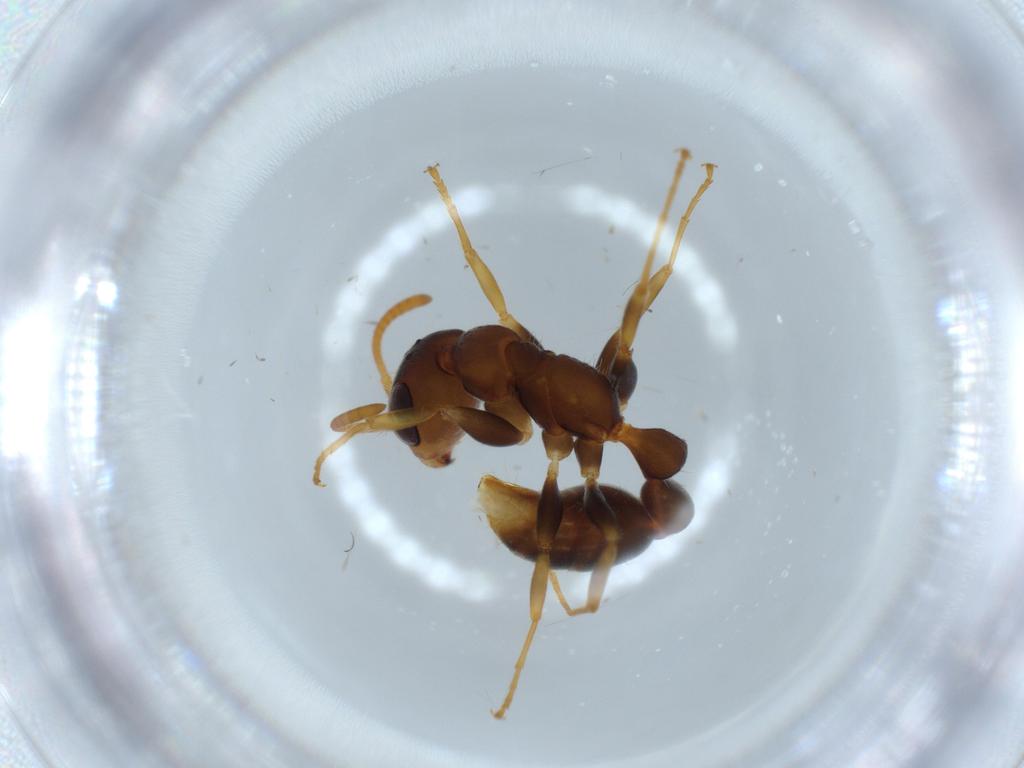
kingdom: Animalia
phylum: Arthropoda
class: Insecta
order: Hymenoptera
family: Formicidae
